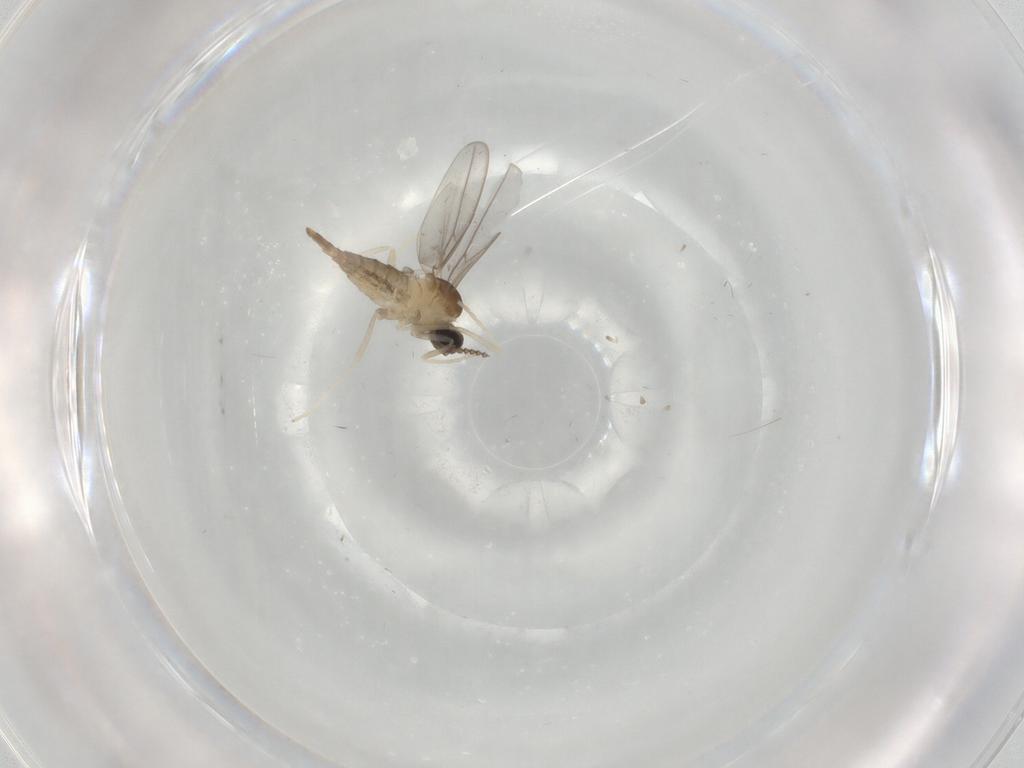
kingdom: Animalia
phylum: Arthropoda
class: Insecta
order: Diptera
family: Cecidomyiidae
